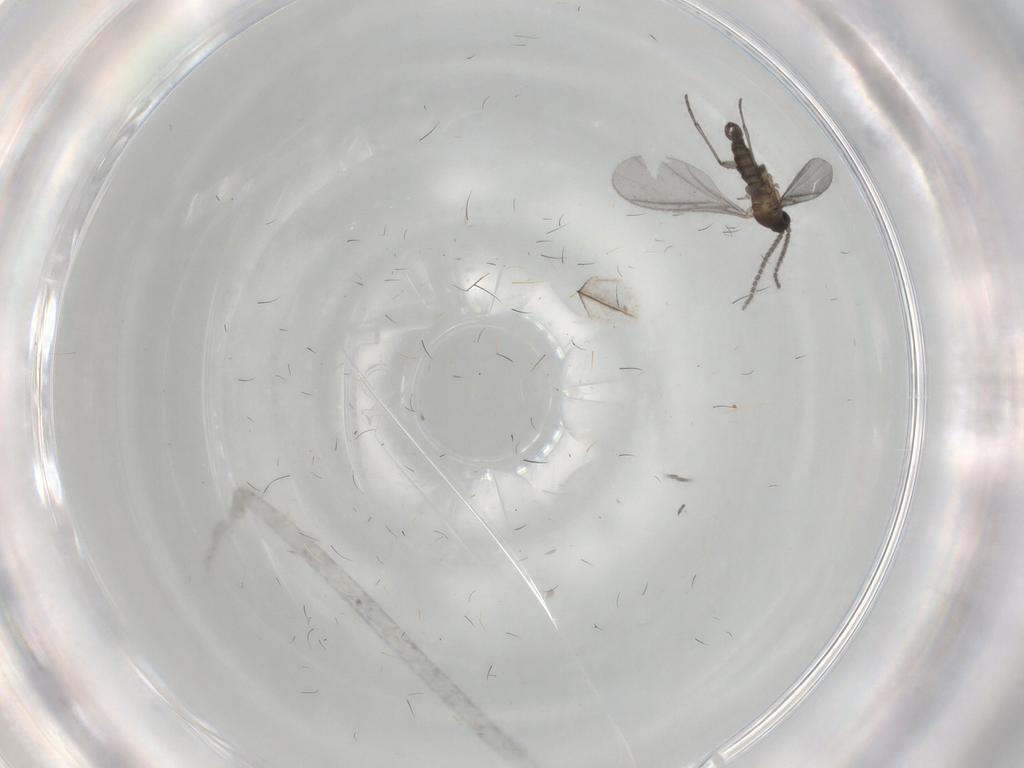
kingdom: Animalia
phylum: Arthropoda
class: Insecta
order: Diptera
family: Sciaridae
